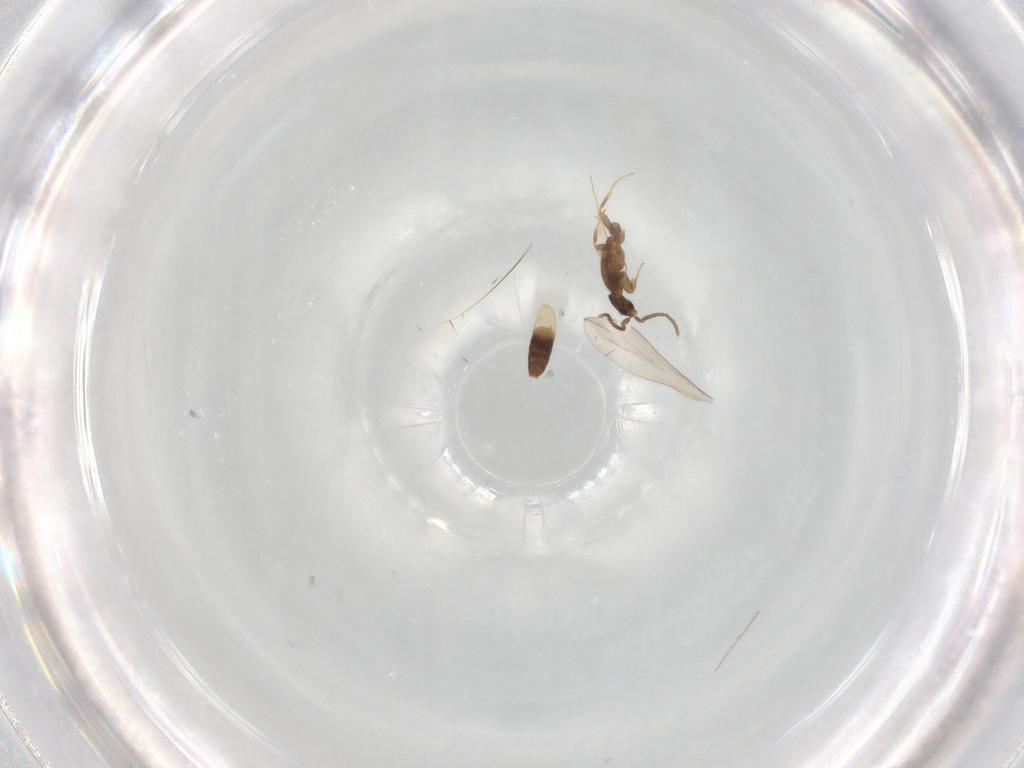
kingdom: Animalia
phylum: Arthropoda
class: Insecta
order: Hymenoptera
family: Formicidae
